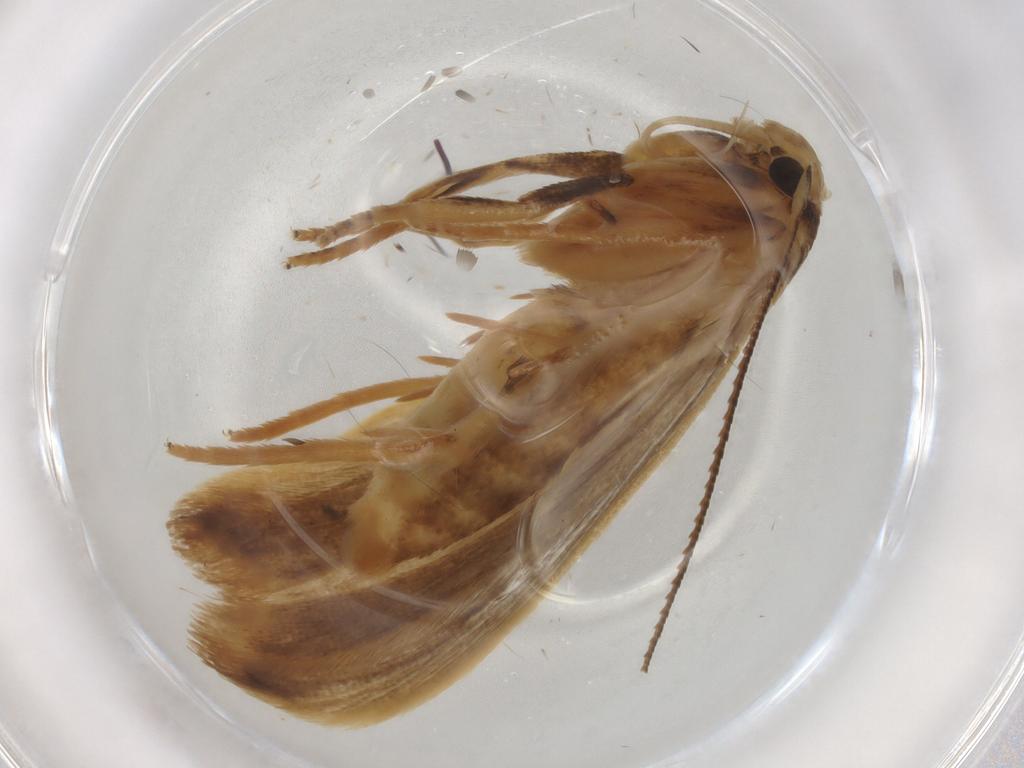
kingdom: Animalia
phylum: Arthropoda
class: Insecta
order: Lepidoptera
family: Gelechiidae
